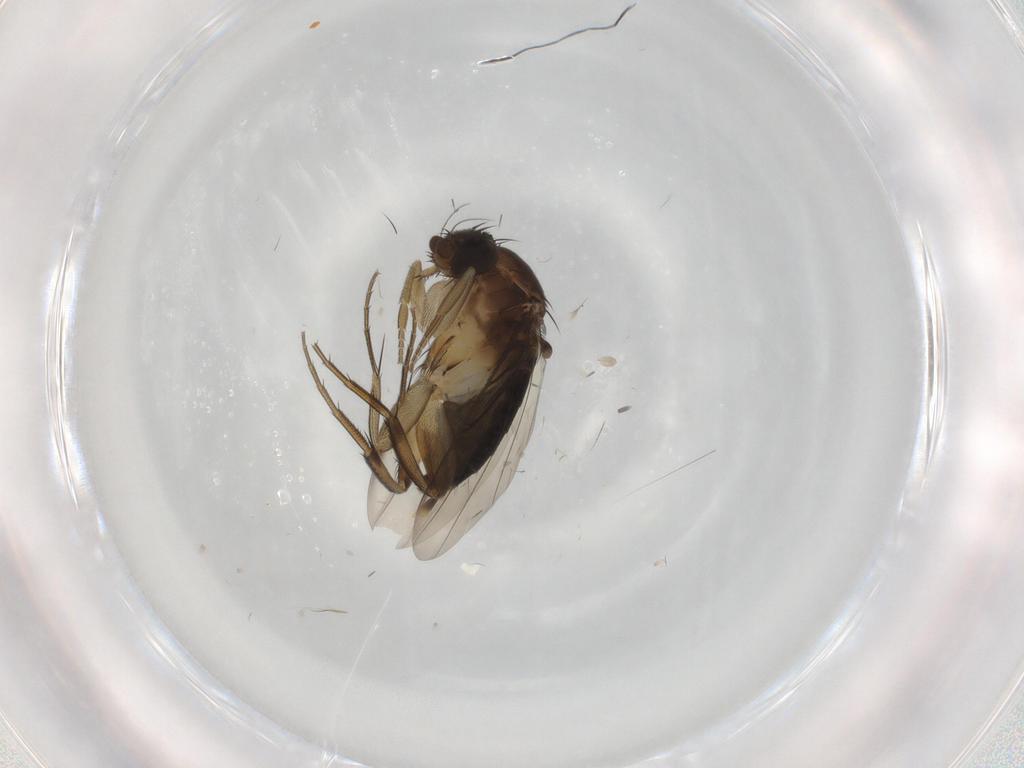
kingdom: Animalia
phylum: Arthropoda
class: Insecta
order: Diptera
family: Phoridae
